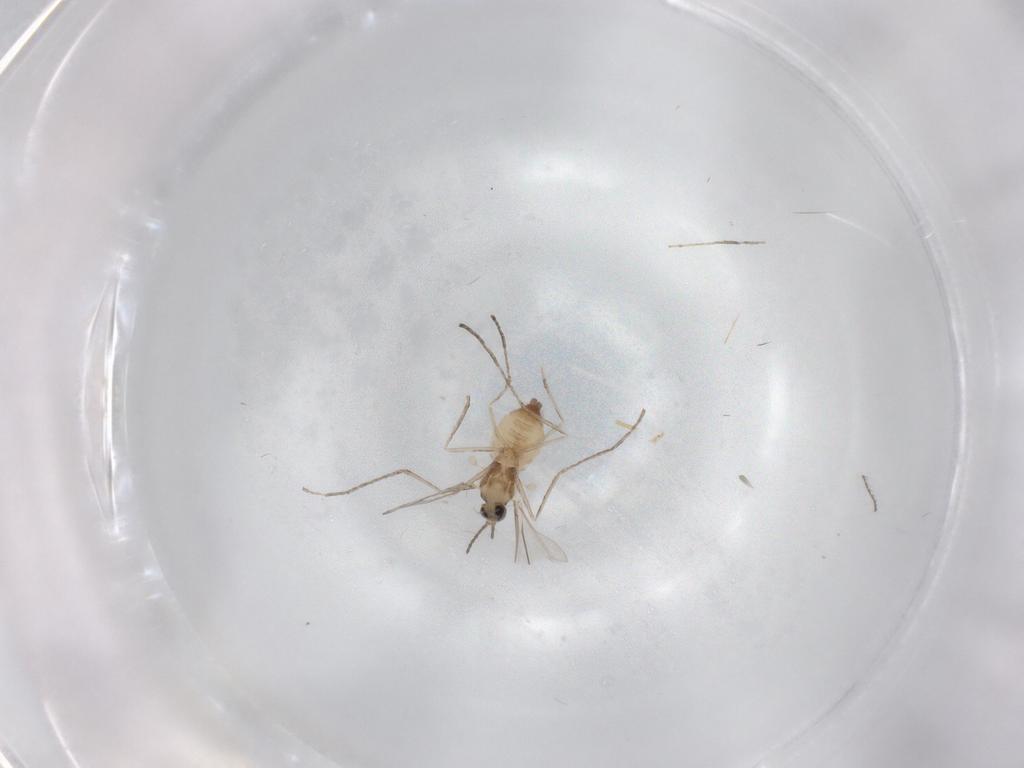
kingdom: Animalia
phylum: Arthropoda
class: Insecta
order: Diptera
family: Cecidomyiidae
